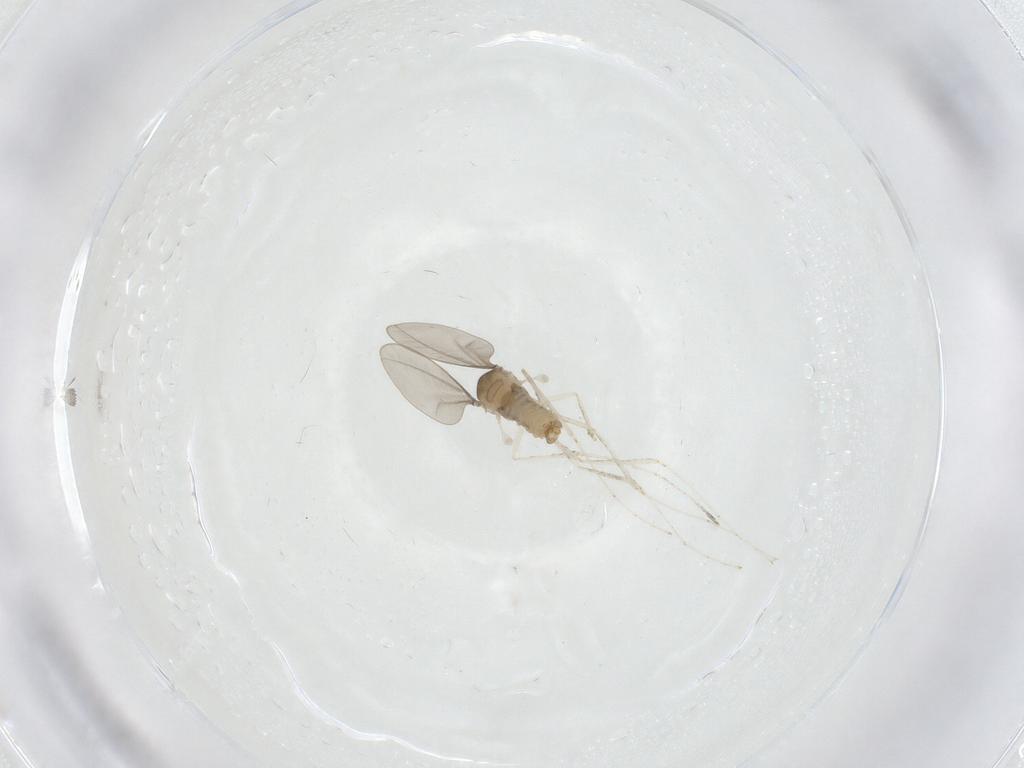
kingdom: Animalia
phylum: Arthropoda
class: Insecta
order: Diptera
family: Chironomidae
